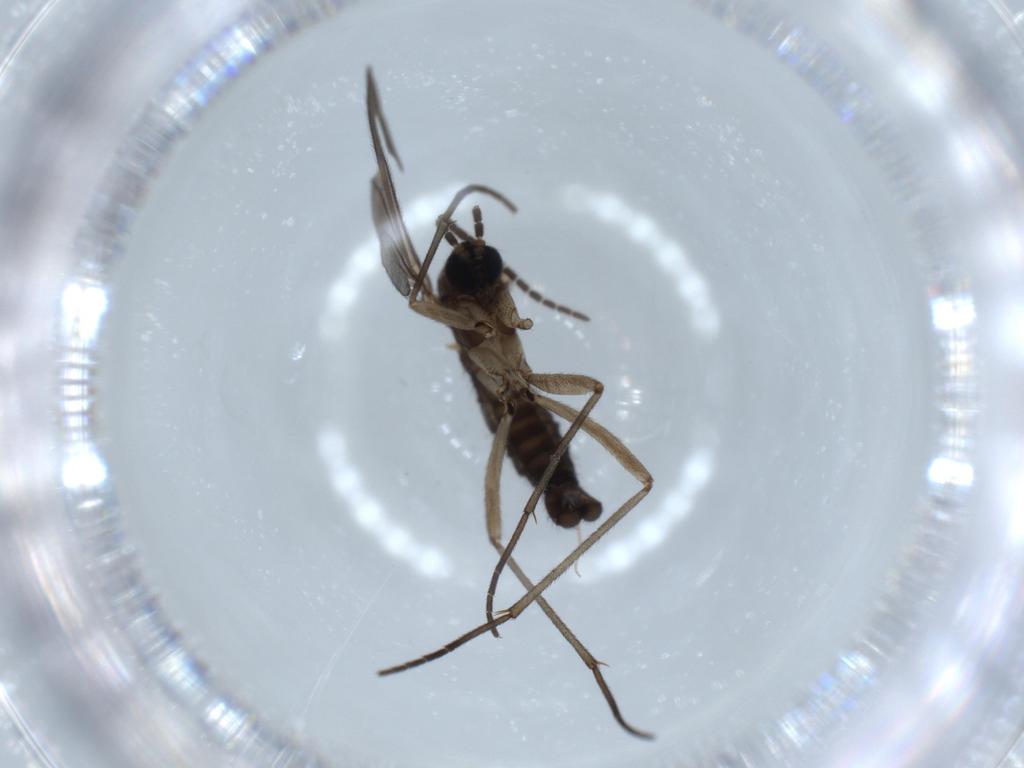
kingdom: Animalia
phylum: Arthropoda
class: Insecta
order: Diptera
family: Sciaridae
